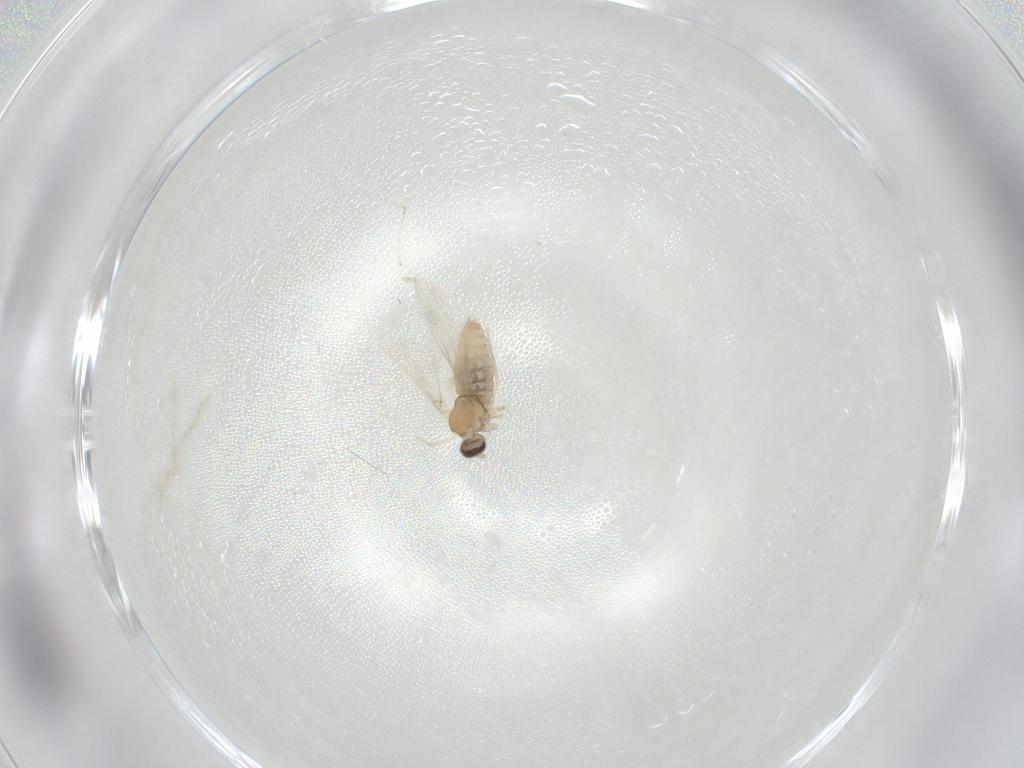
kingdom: Animalia
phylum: Arthropoda
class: Insecta
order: Diptera
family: Cecidomyiidae
